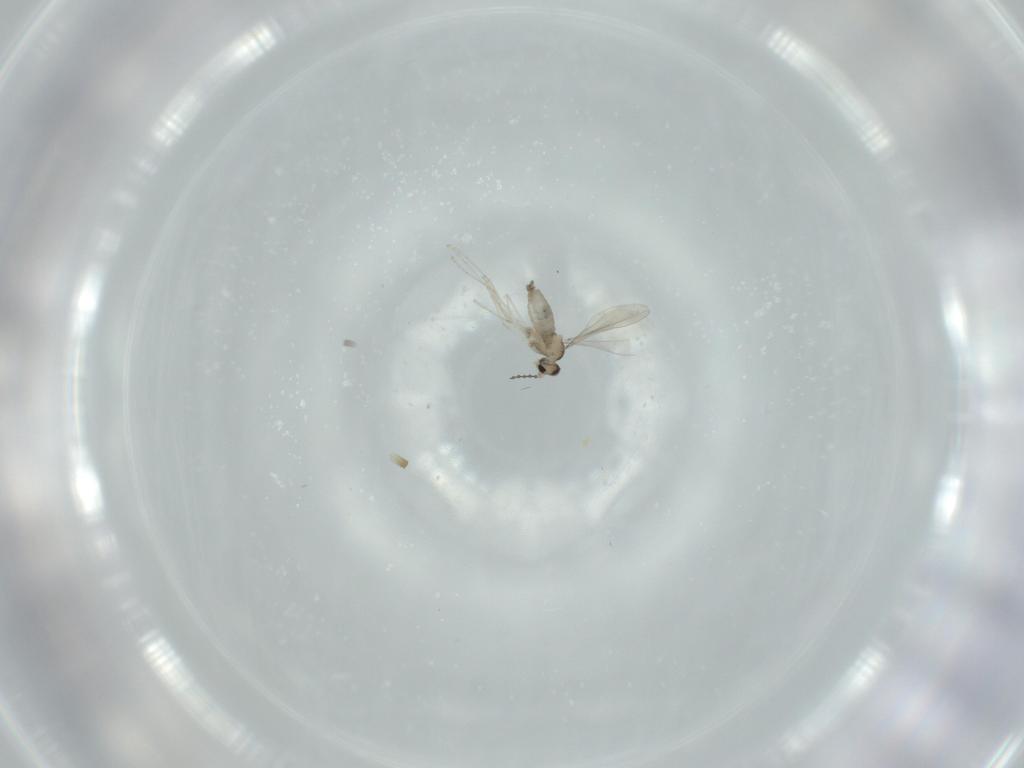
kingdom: Animalia
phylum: Arthropoda
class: Insecta
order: Diptera
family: Cecidomyiidae
